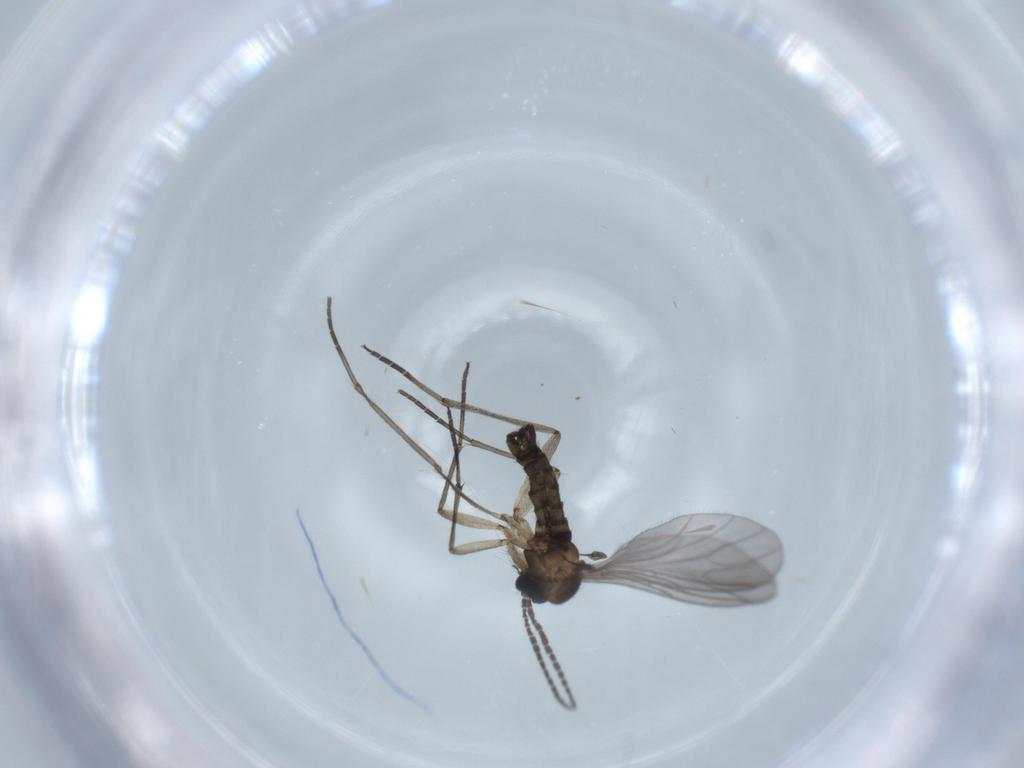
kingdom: Animalia
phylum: Arthropoda
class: Insecta
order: Diptera
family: Sciaridae
